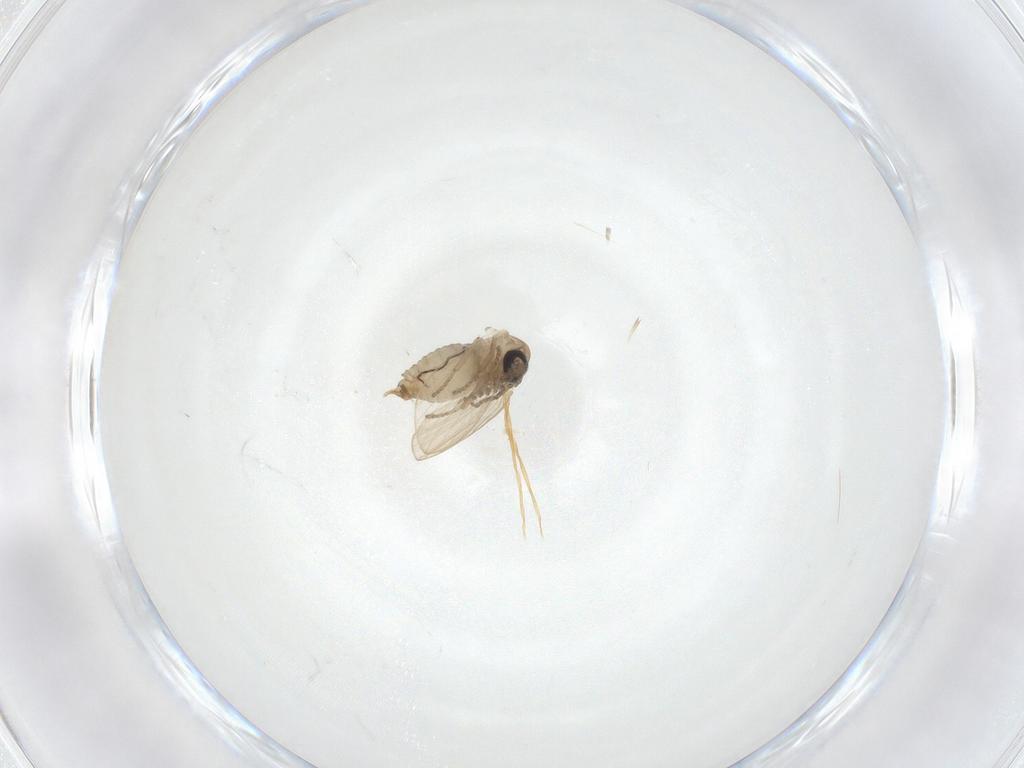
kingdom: Animalia
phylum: Arthropoda
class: Insecta
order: Diptera
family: Psychodidae
